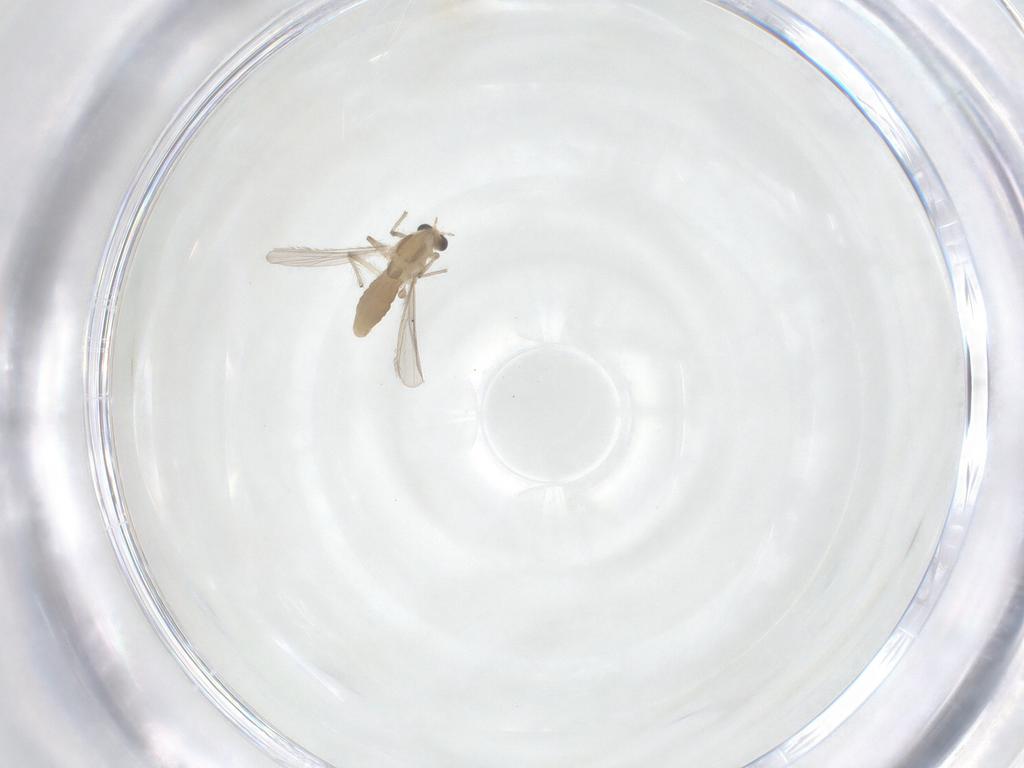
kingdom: Animalia
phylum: Arthropoda
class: Insecta
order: Diptera
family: Chironomidae
